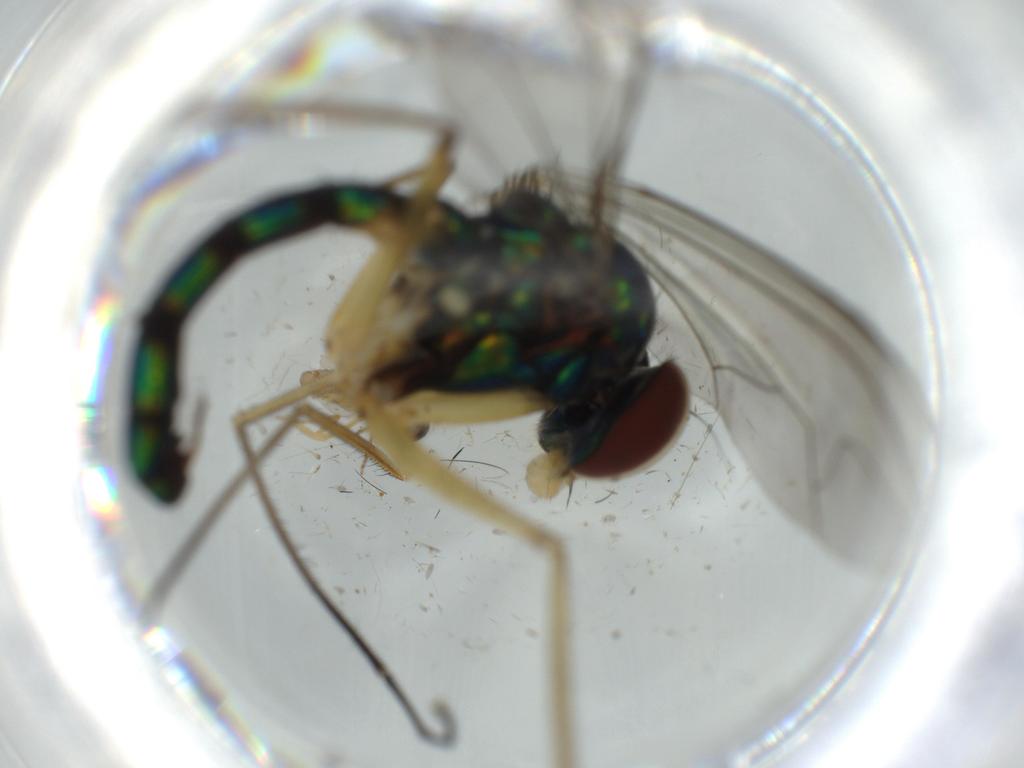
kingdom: Animalia
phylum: Arthropoda
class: Insecta
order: Diptera
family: Dolichopodidae
